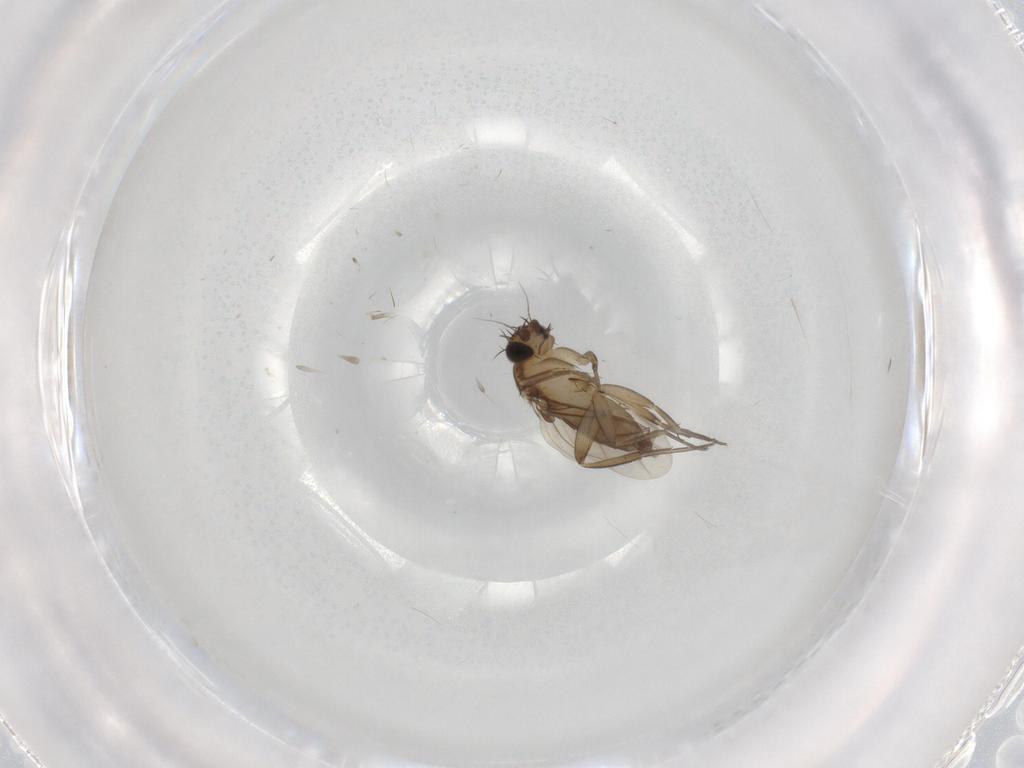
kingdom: Animalia
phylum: Arthropoda
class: Insecta
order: Diptera
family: Phoridae
